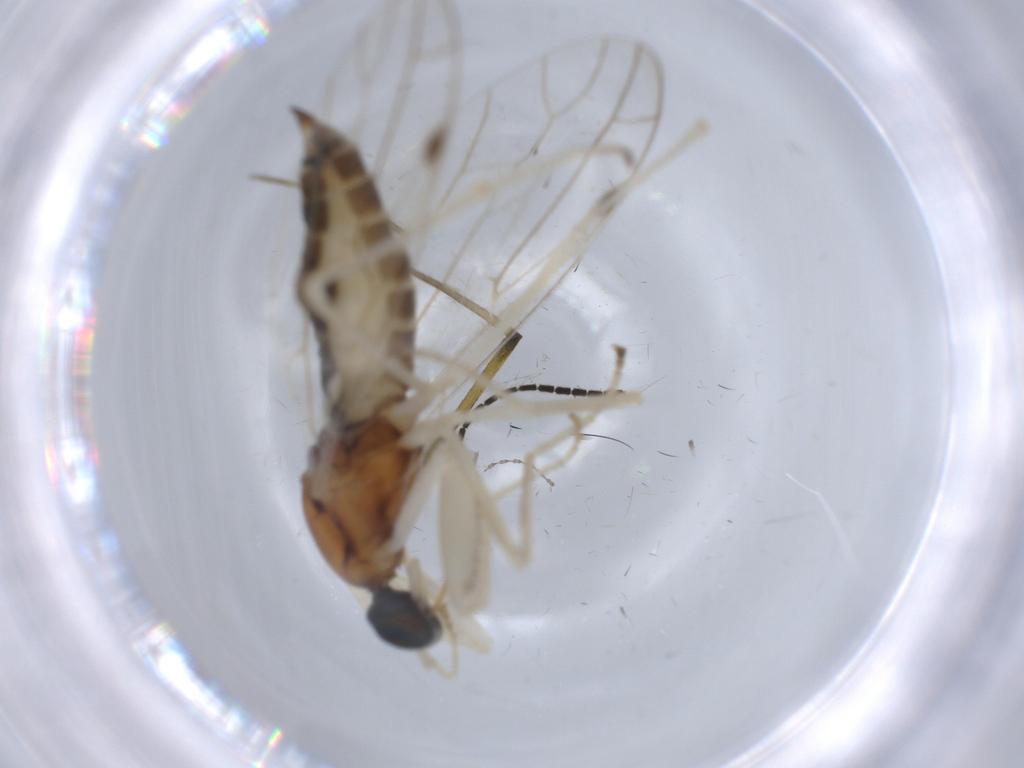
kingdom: Animalia
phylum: Arthropoda
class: Insecta
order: Diptera
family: Sciaridae
